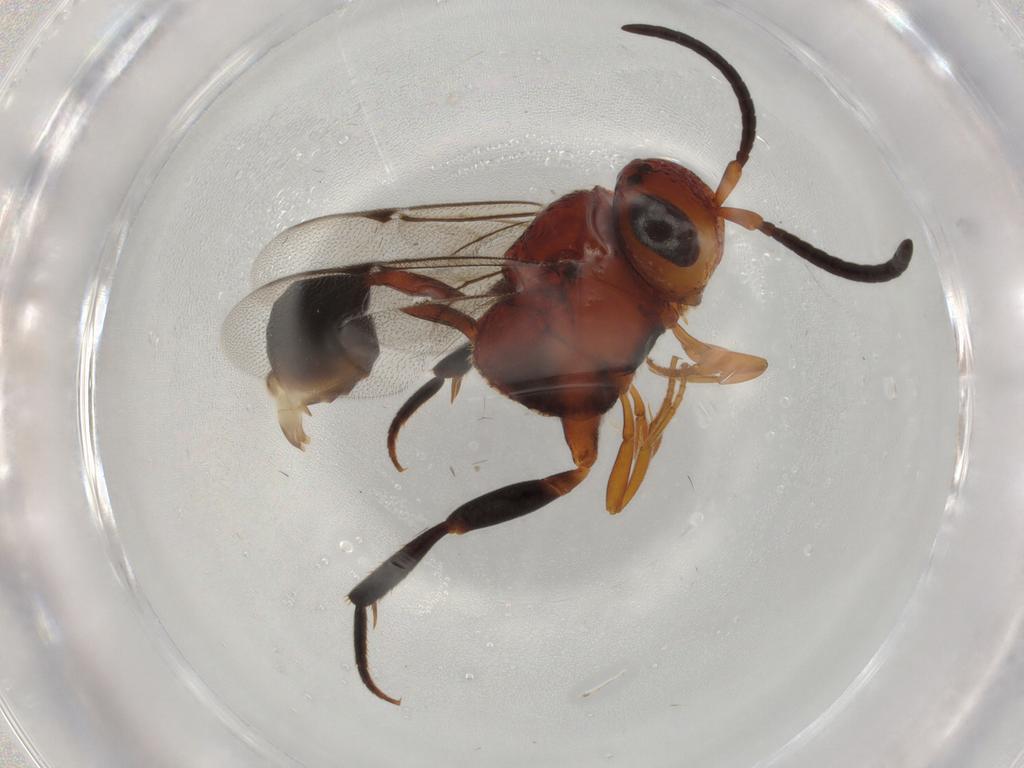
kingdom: Animalia
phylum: Arthropoda
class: Insecta
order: Hymenoptera
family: Evaniidae
